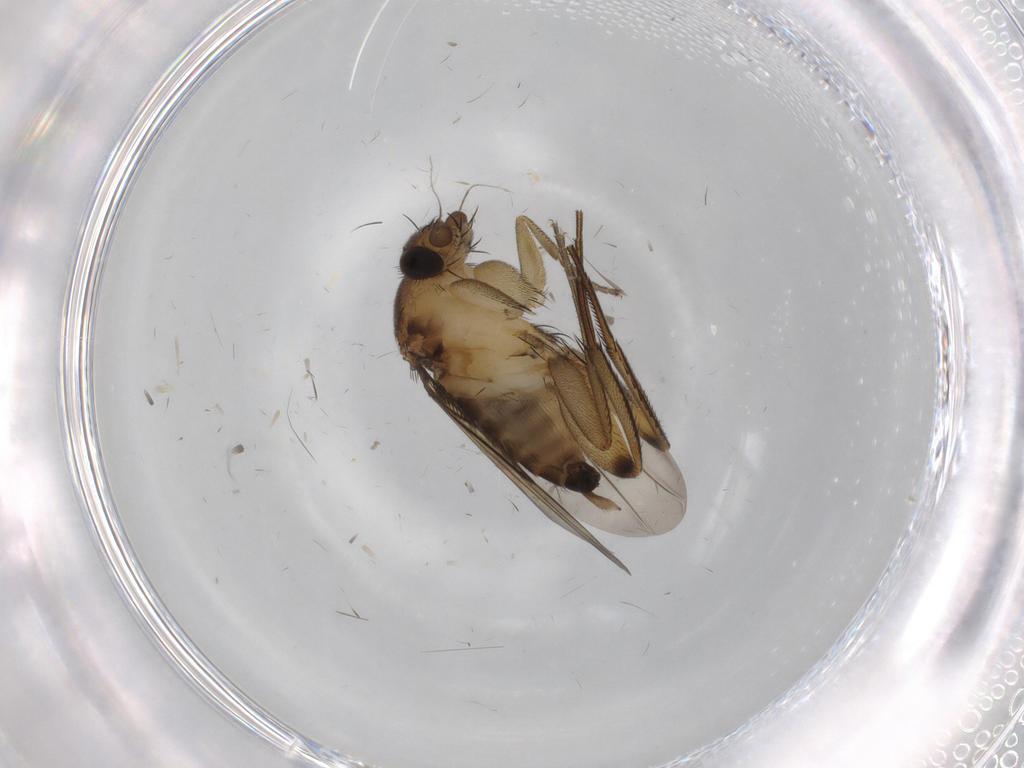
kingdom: Animalia
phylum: Arthropoda
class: Insecta
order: Diptera
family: Phoridae
